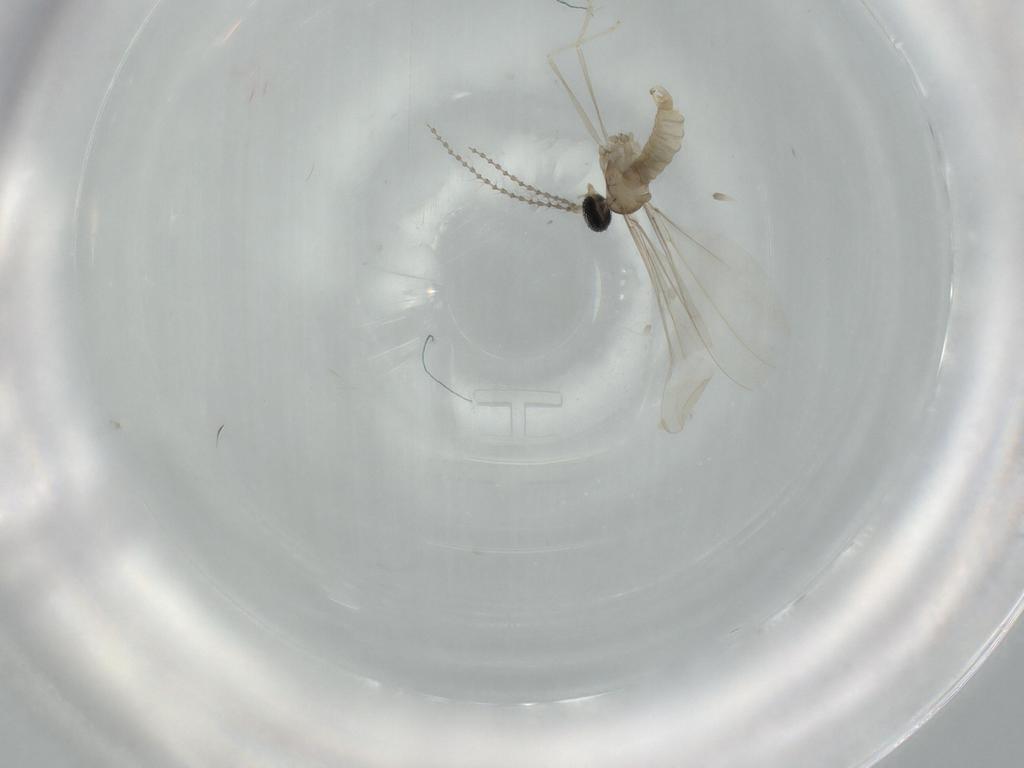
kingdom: Animalia
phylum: Arthropoda
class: Insecta
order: Diptera
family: Cecidomyiidae
